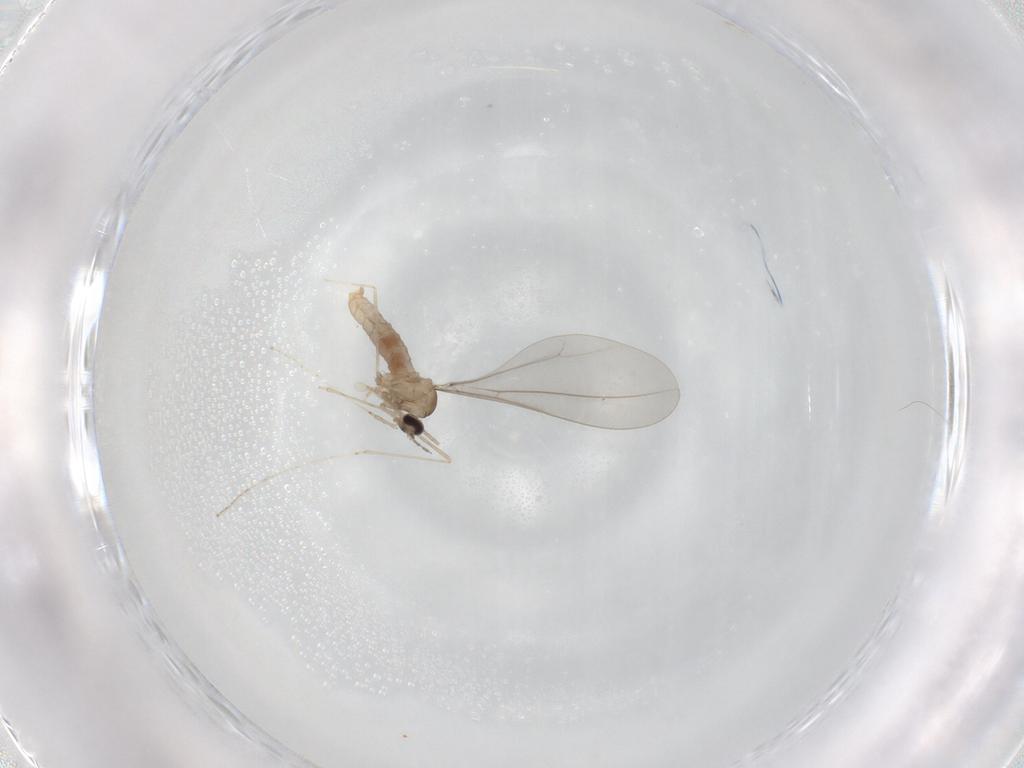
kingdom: Animalia
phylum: Arthropoda
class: Insecta
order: Diptera
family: Cecidomyiidae
